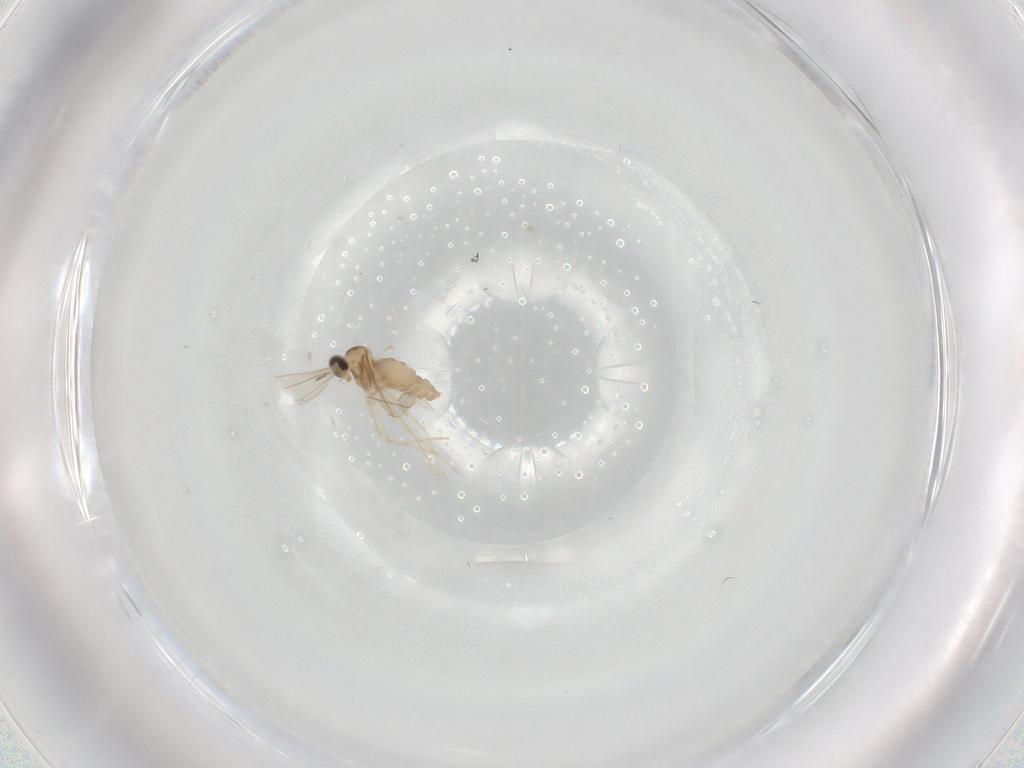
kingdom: Animalia
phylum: Arthropoda
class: Insecta
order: Diptera
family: Cecidomyiidae
